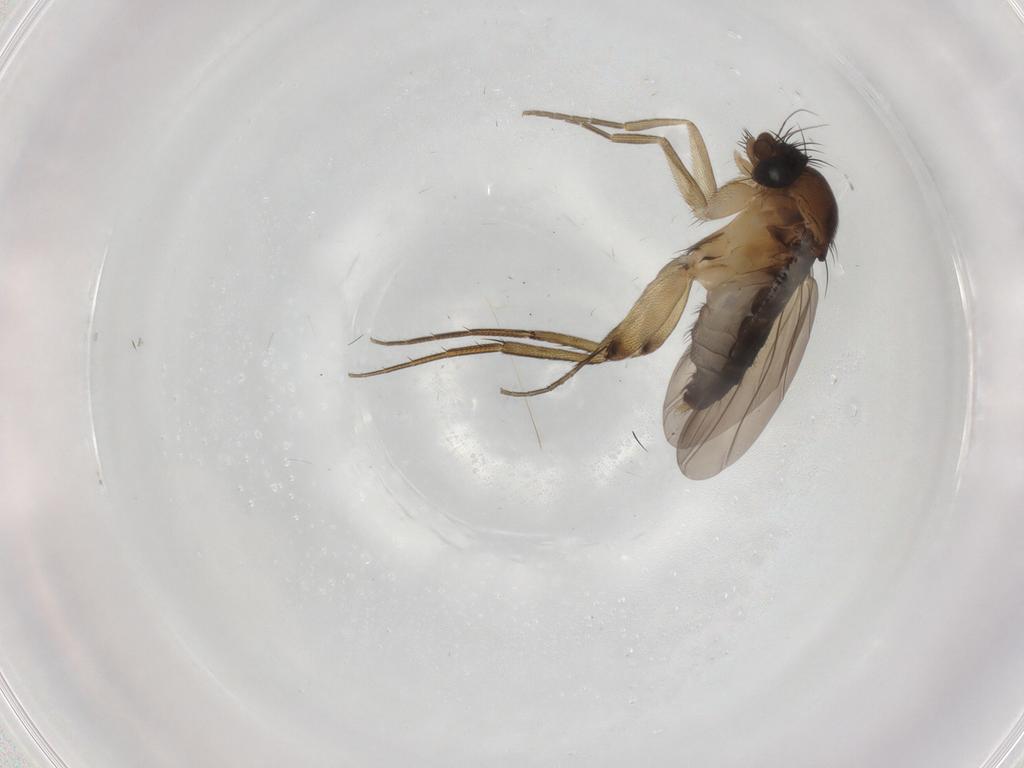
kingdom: Animalia
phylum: Arthropoda
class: Insecta
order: Diptera
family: Phoridae
